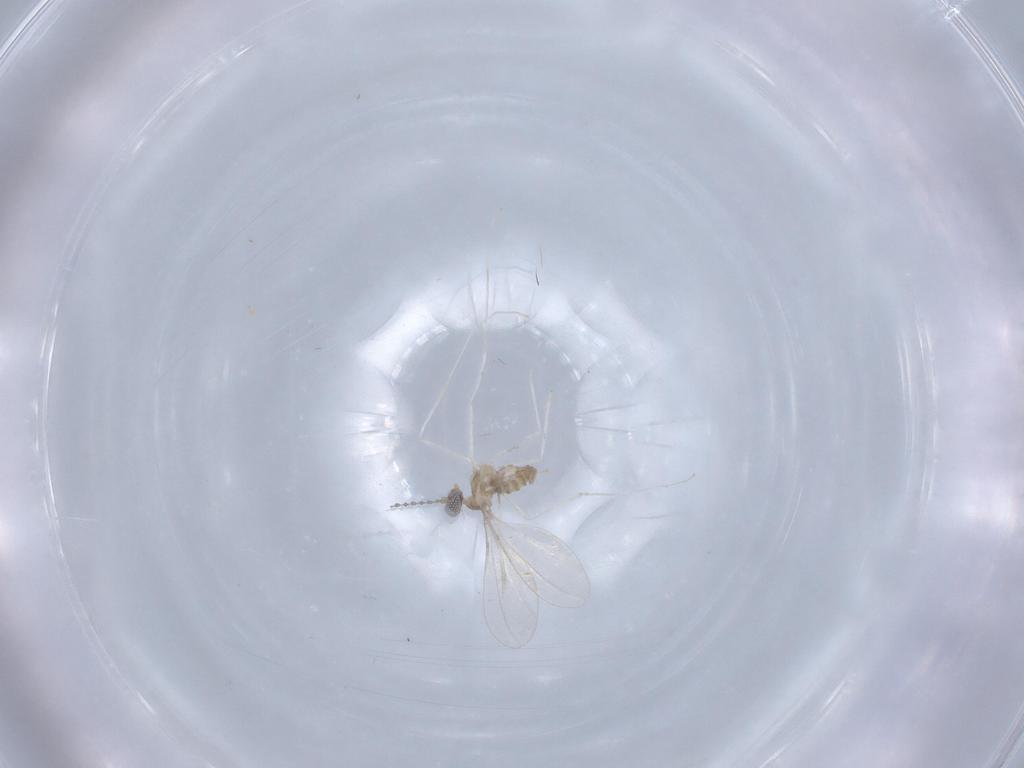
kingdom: Animalia
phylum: Arthropoda
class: Insecta
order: Diptera
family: Cecidomyiidae
